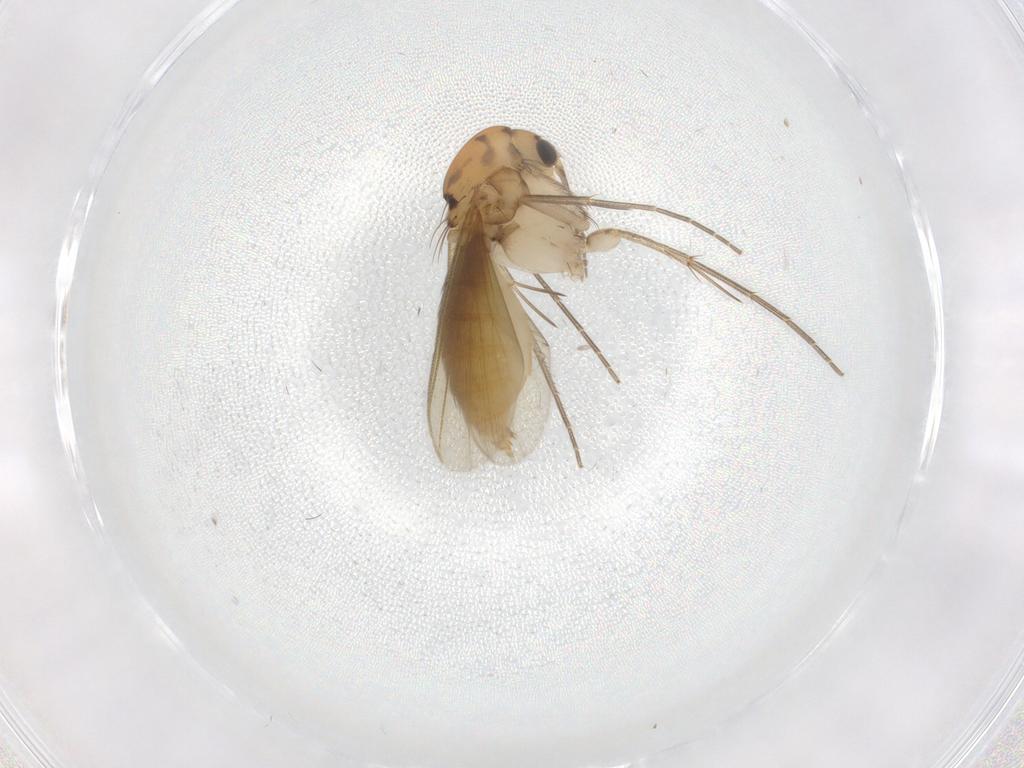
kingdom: Animalia
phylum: Arthropoda
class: Insecta
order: Diptera
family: Mycetophilidae
